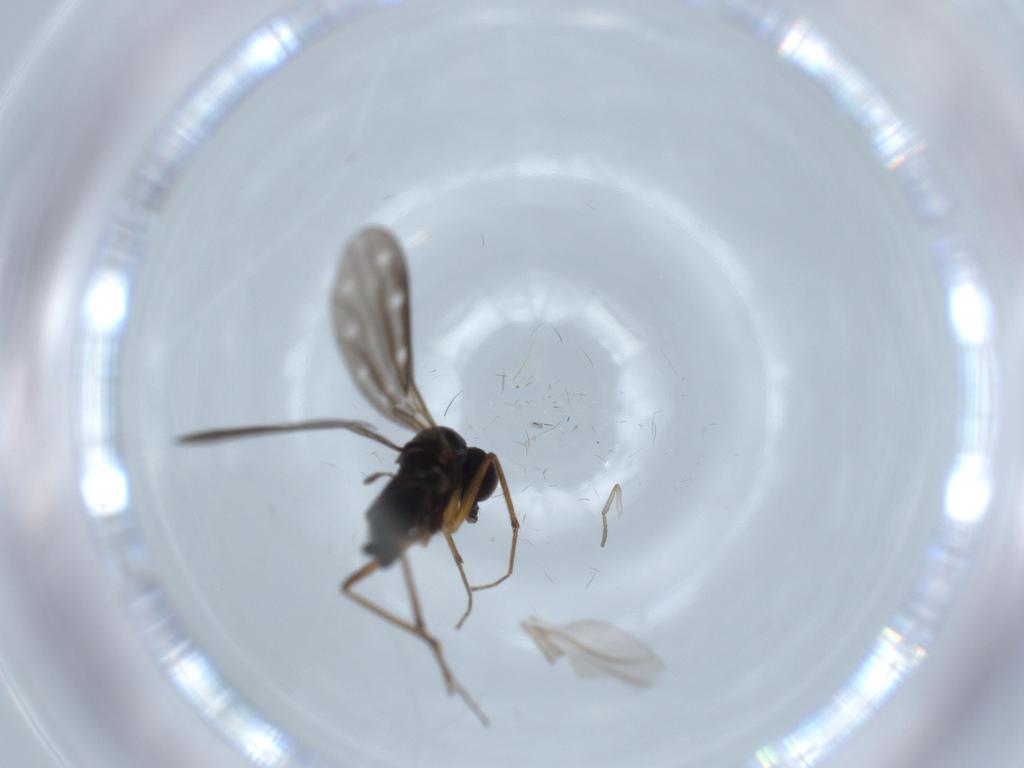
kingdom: Animalia
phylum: Arthropoda
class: Insecta
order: Diptera
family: Empididae
